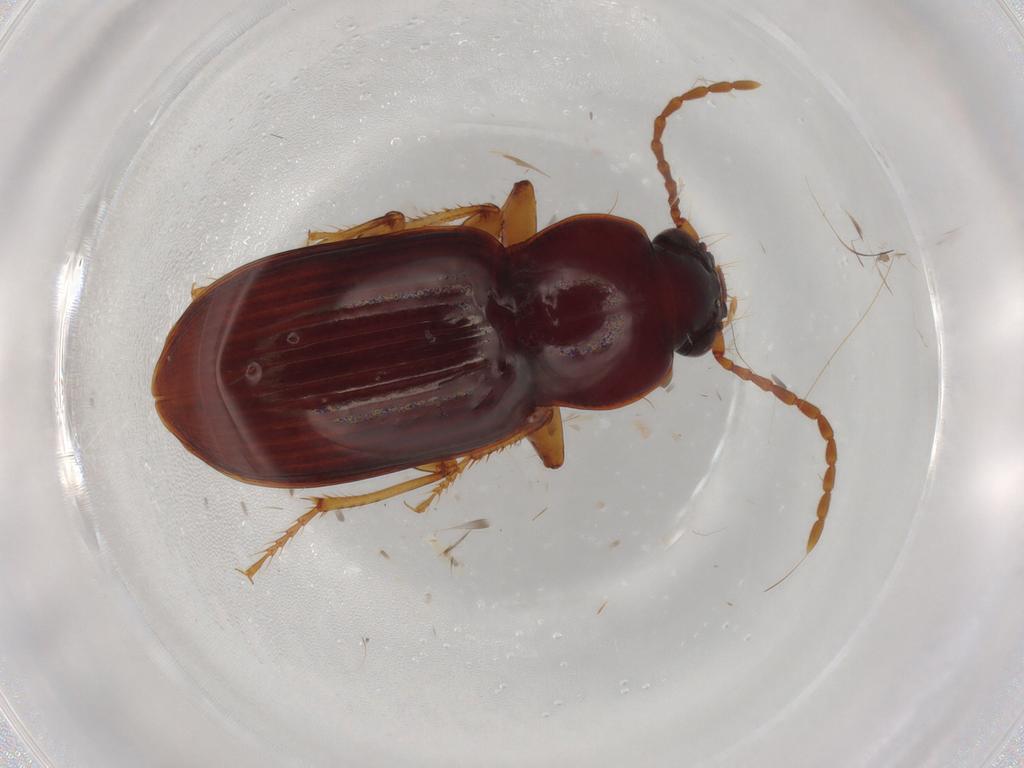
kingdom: Animalia
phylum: Arthropoda
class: Insecta
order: Coleoptera
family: Carabidae
